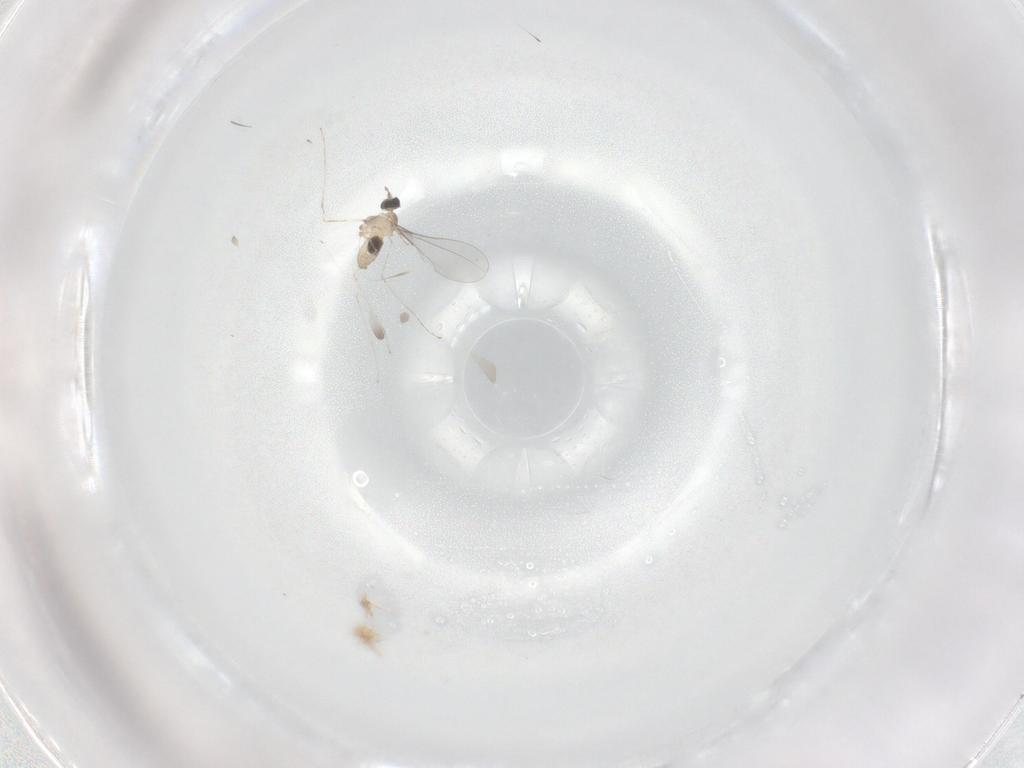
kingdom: Animalia
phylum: Arthropoda
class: Insecta
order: Diptera
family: Cecidomyiidae
